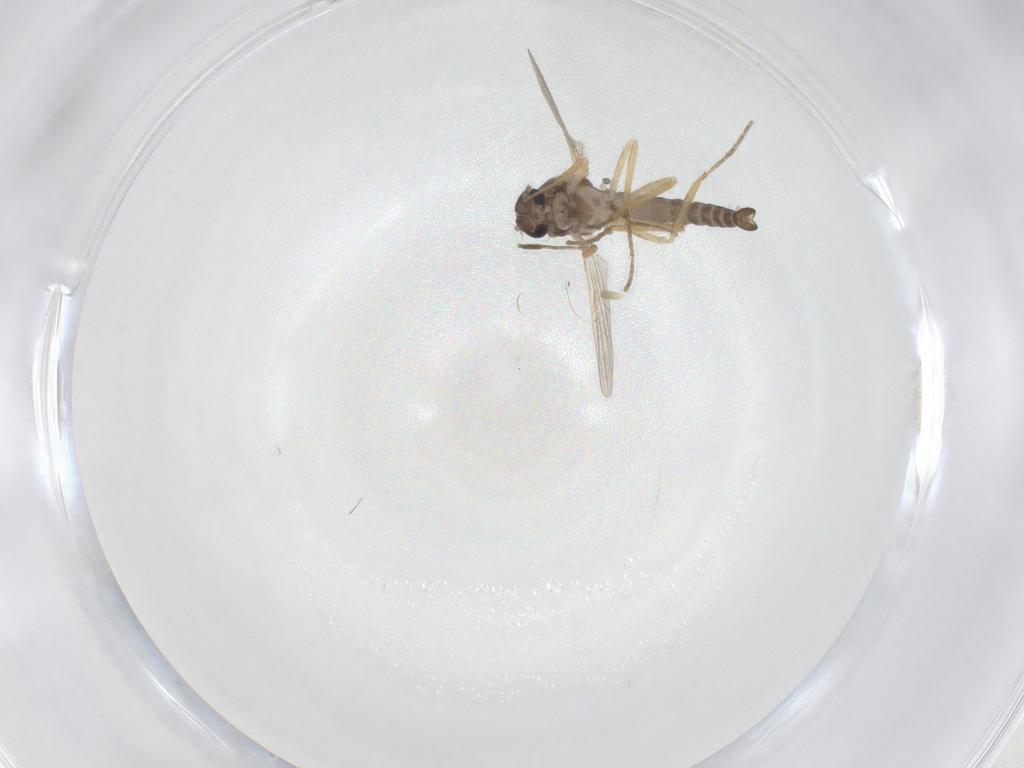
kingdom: Animalia
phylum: Arthropoda
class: Insecta
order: Diptera
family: Ceratopogonidae
